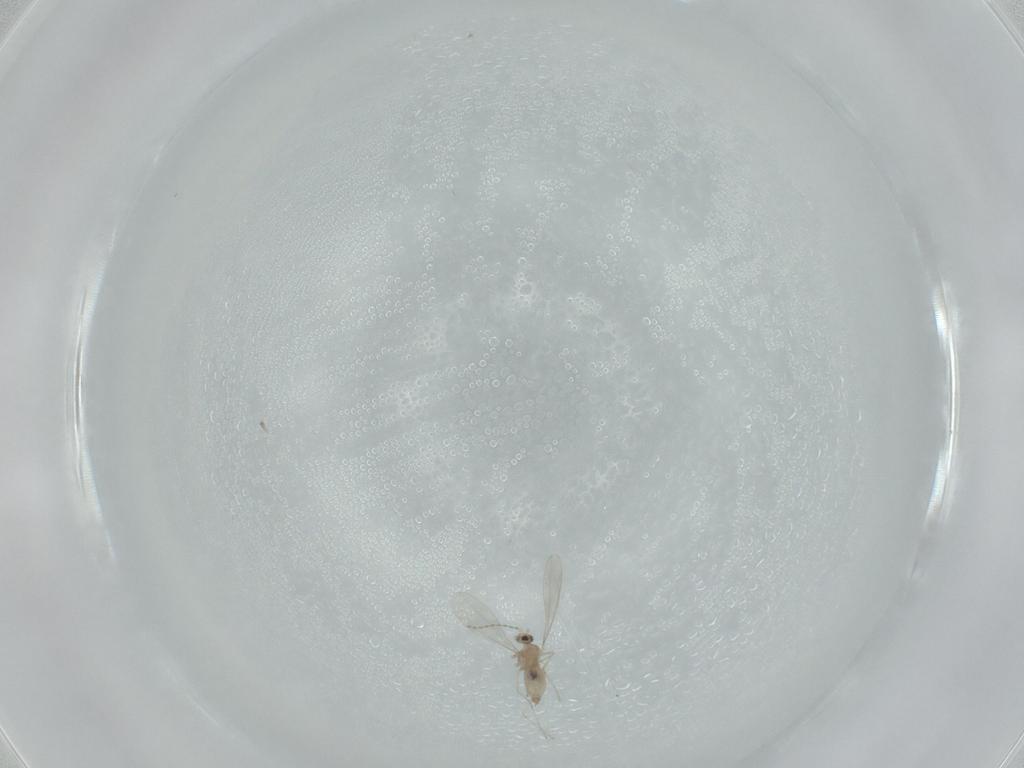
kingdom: Animalia
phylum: Arthropoda
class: Insecta
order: Diptera
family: Cecidomyiidae
